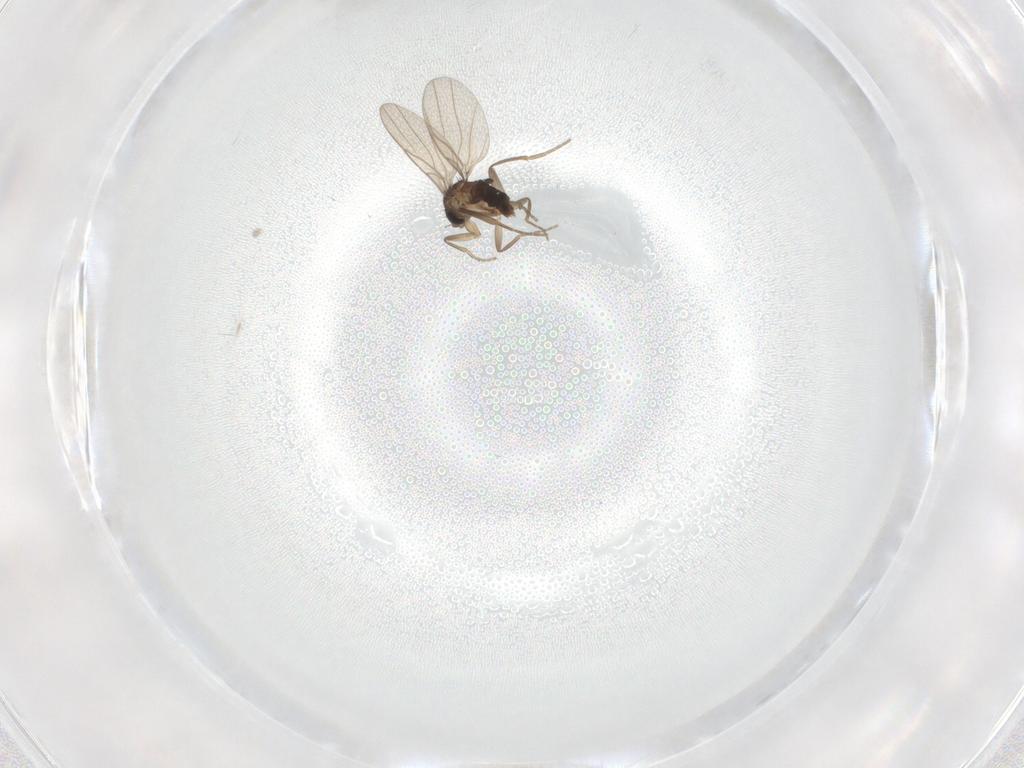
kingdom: Animalia
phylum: Arthropoda
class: Insecta
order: Diptera
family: Phoridae
